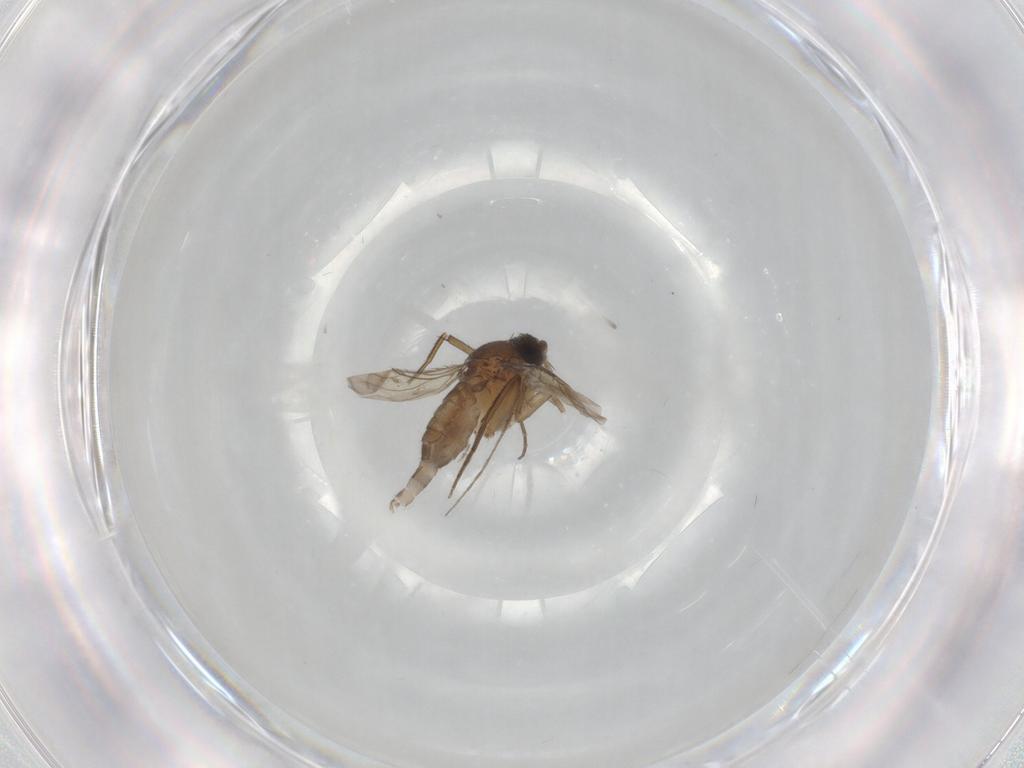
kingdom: Animalia
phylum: Arthropoda
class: Insecta
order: Diptera
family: Phoridae
